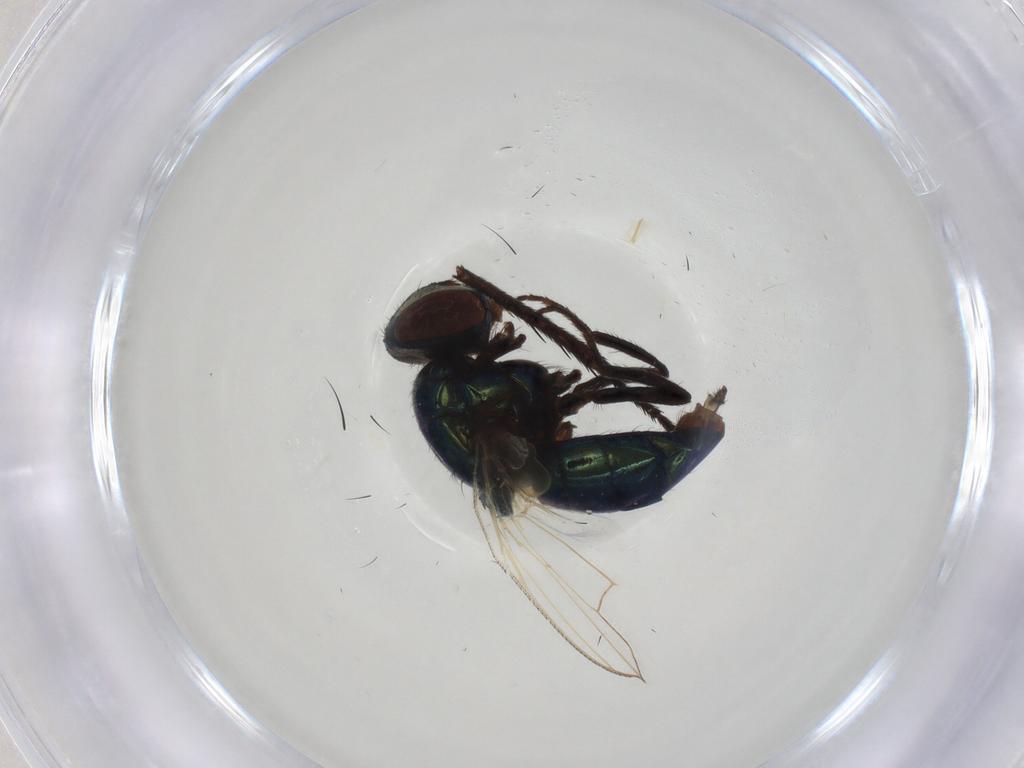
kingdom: Animalia
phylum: Arthropoda
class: Insecta
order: Diptera
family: Muscidae
